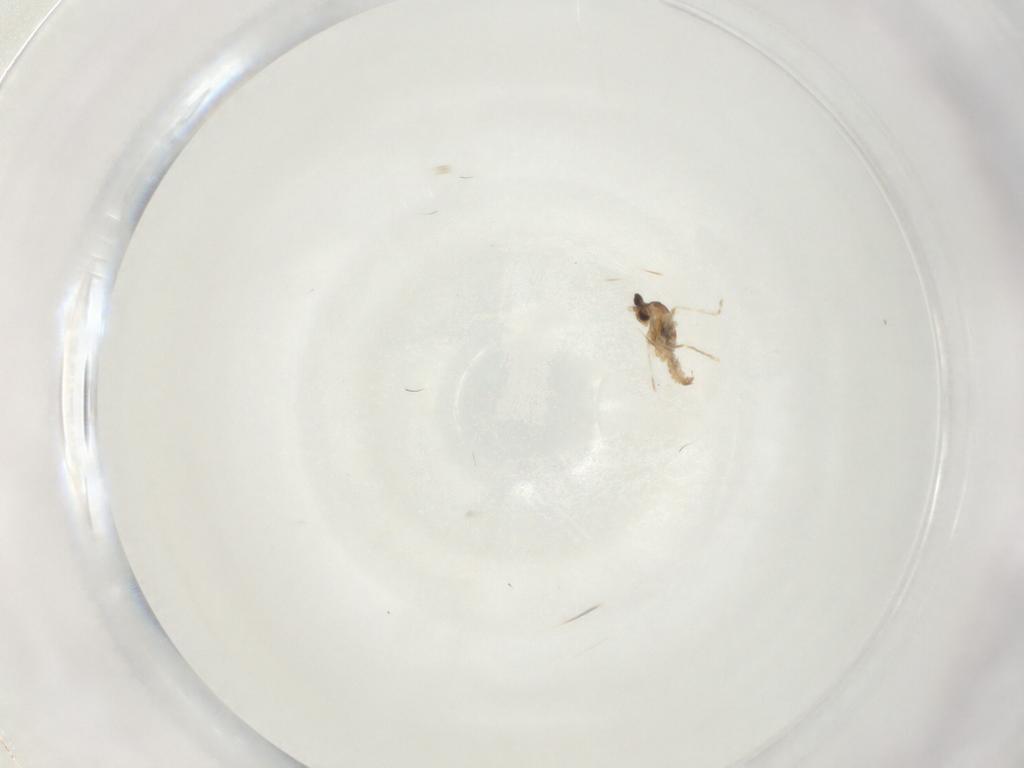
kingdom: Animalia
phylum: Arthropoda
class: Insecta
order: Diptera
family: Cecidomyiidae
